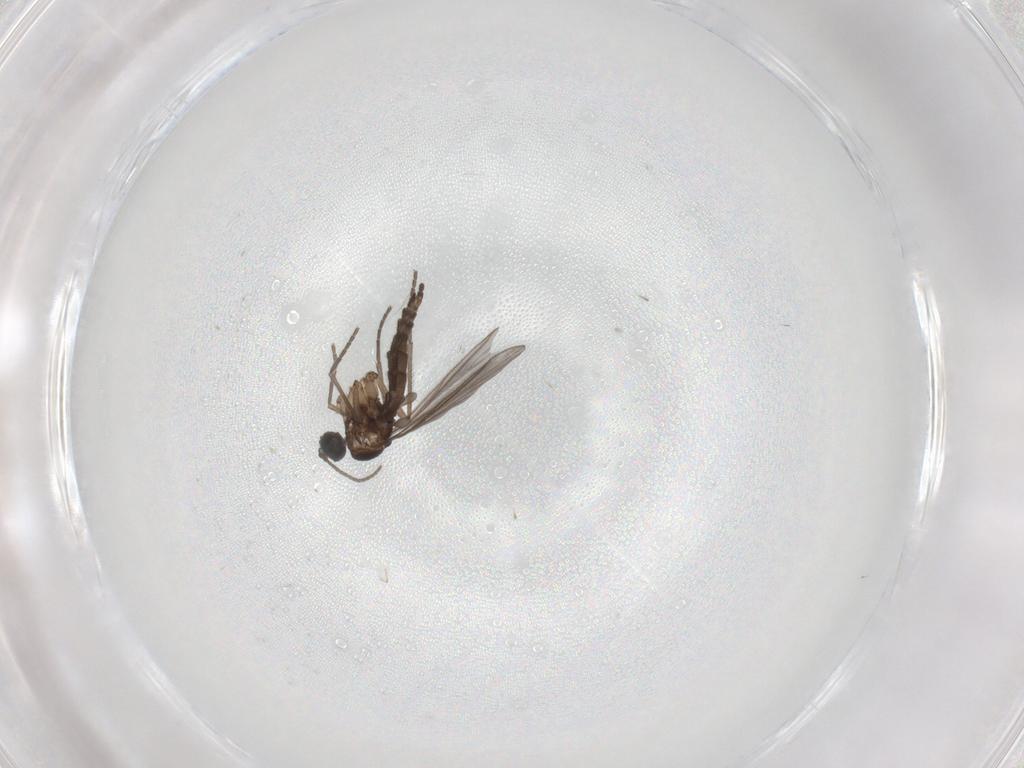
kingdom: Animalia
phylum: Arthropoda
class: Insecta
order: Diptera
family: Sciaridae
